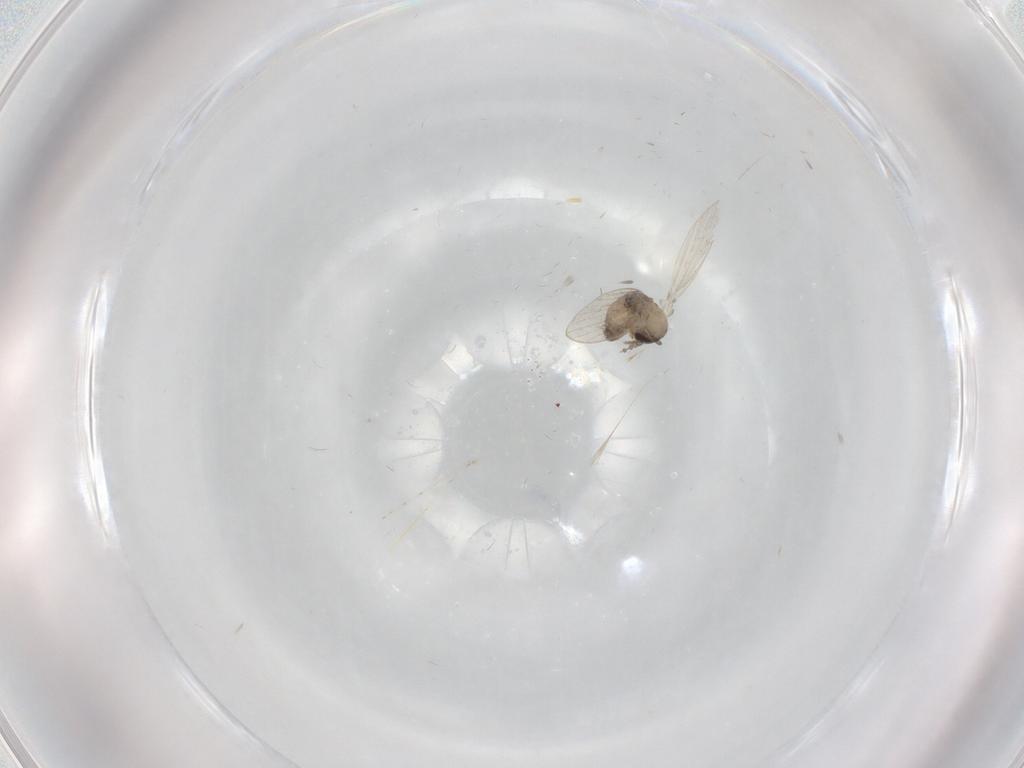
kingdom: Animalia
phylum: Arthropoda
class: Insecta
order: Diptera
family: Psychodidae
